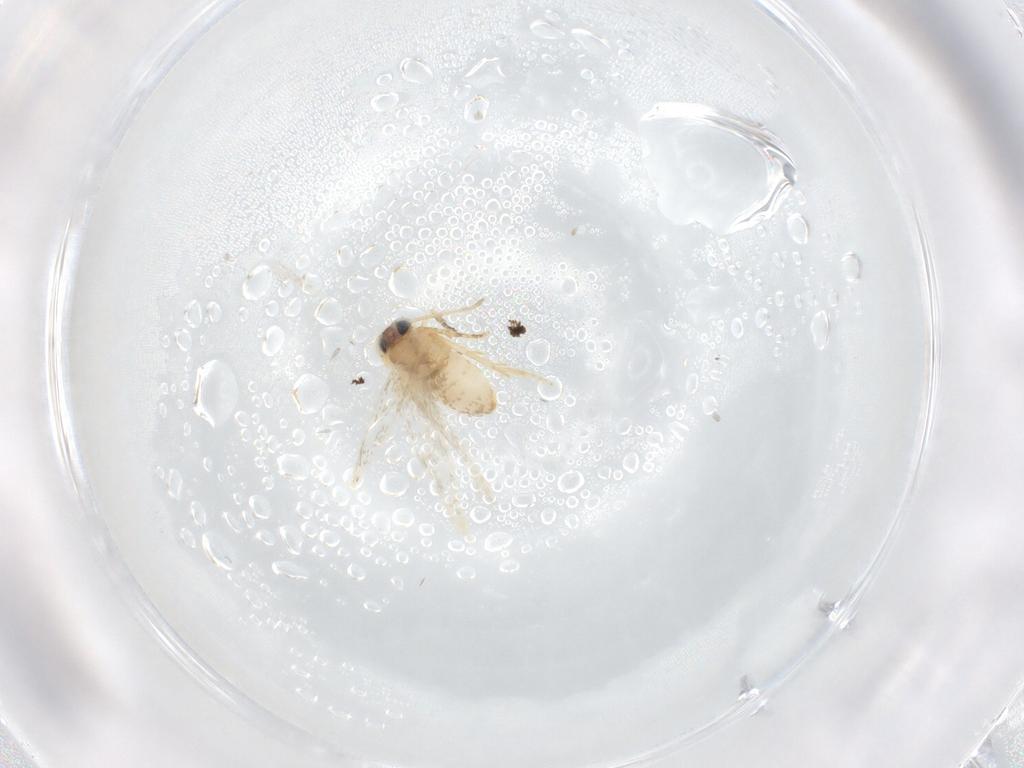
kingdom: Animalia
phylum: Arthropoda
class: Insecta
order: Lepidoptera
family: Nepticulidae
